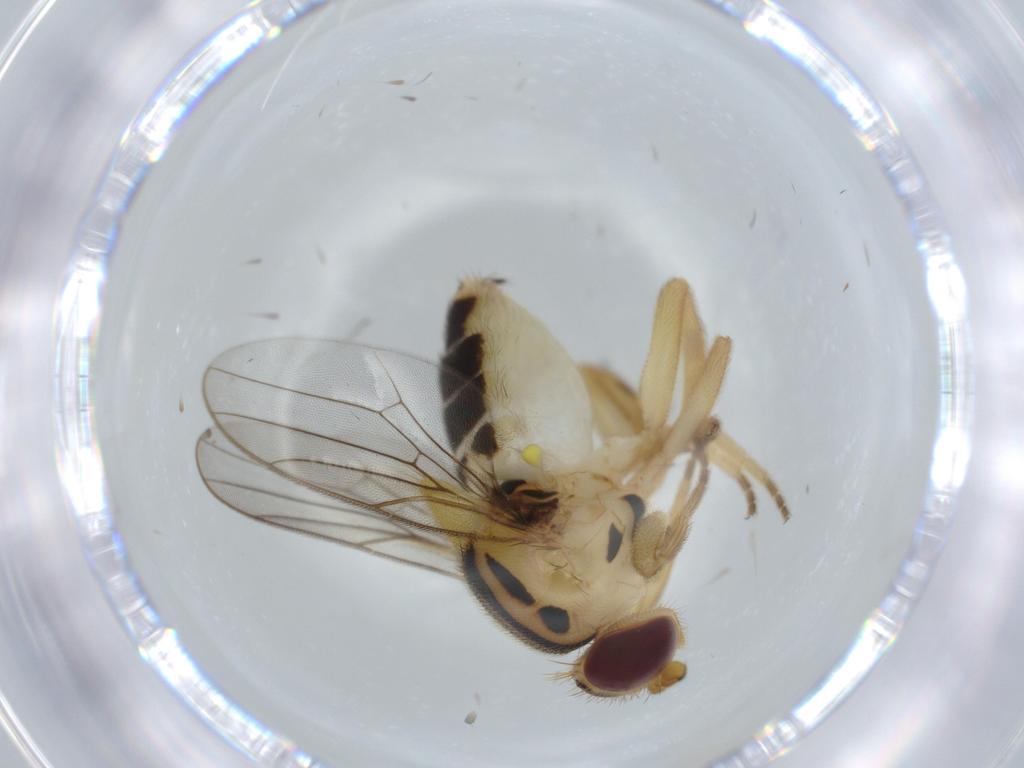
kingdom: Animalia
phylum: Arthropoda
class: Insecta
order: Diptera
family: Chloropidae
